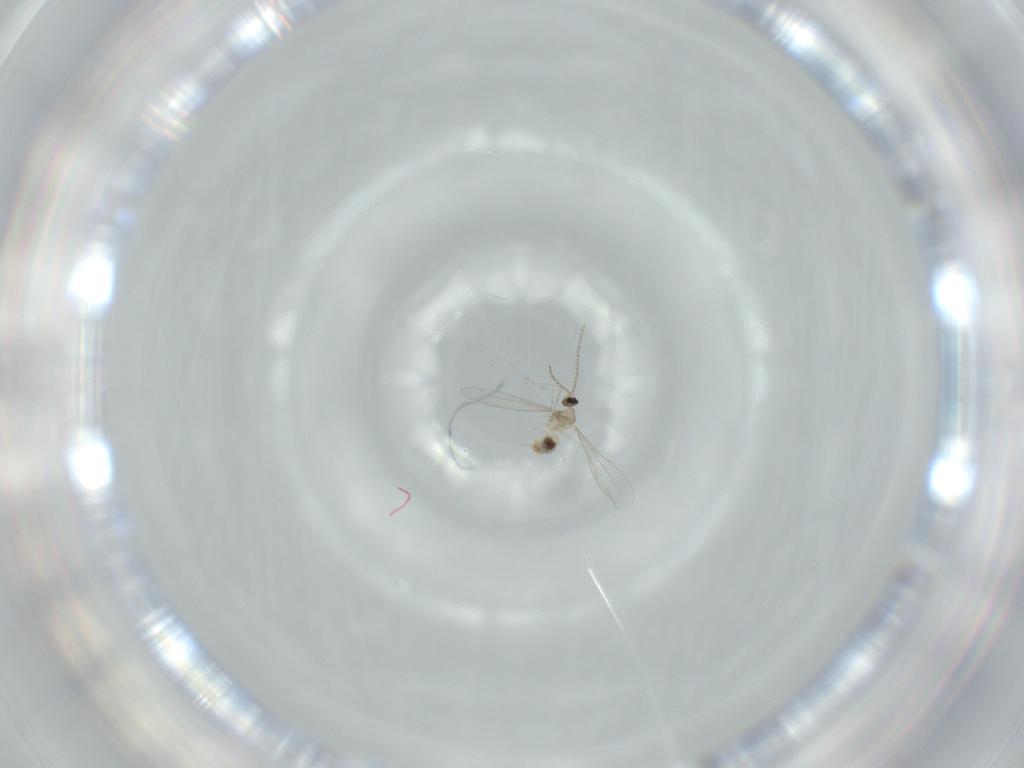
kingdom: Animalia
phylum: Arthropoda
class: Insecta
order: Diptera
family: Cecidomyiidae
